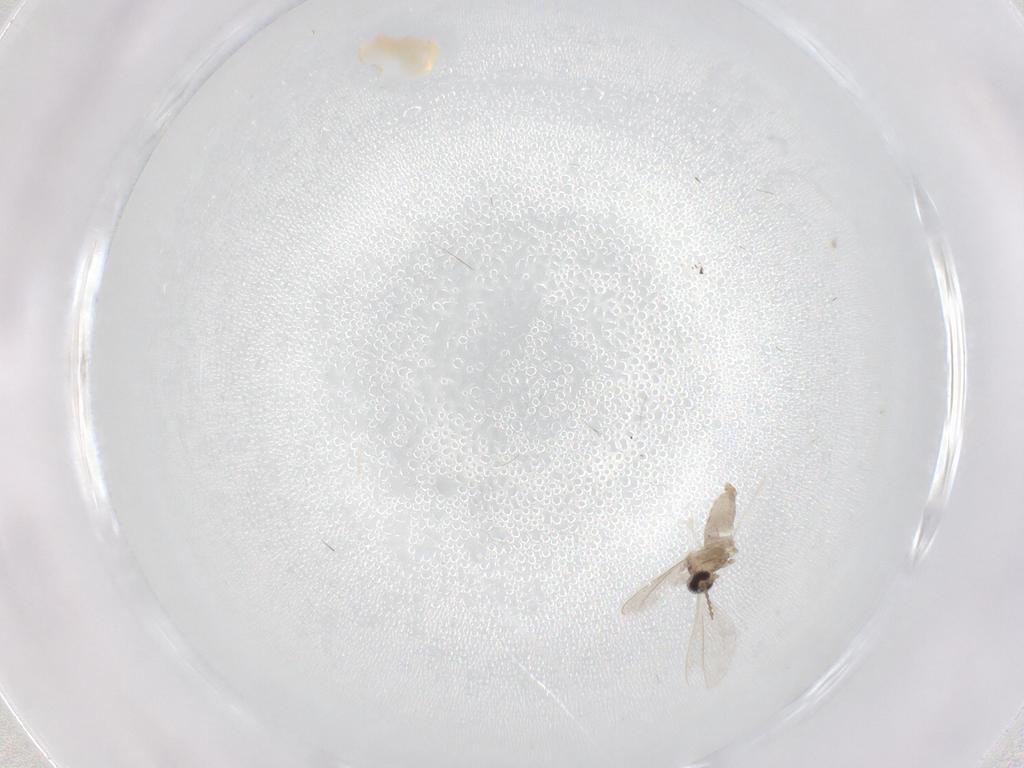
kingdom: Animalia
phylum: Arthropoda
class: Insecta
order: Diptera
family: Cecidomyiidae
